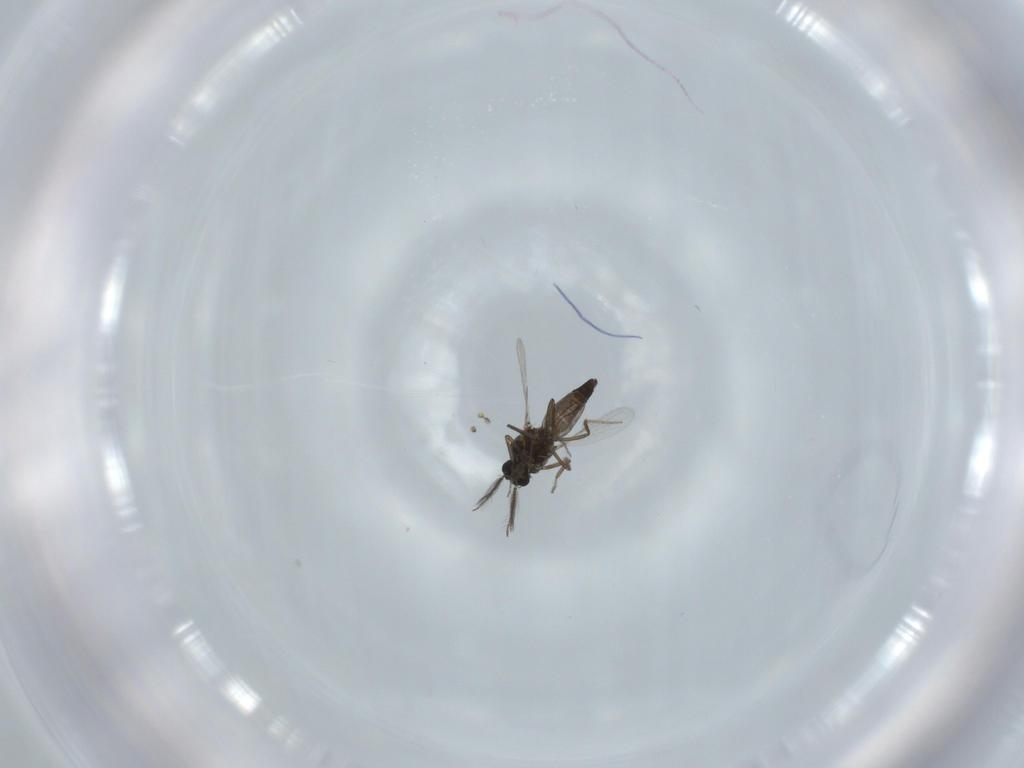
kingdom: Animalia
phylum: Arthropoda
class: Insecta
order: Diptera
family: Ceratopogonidae
